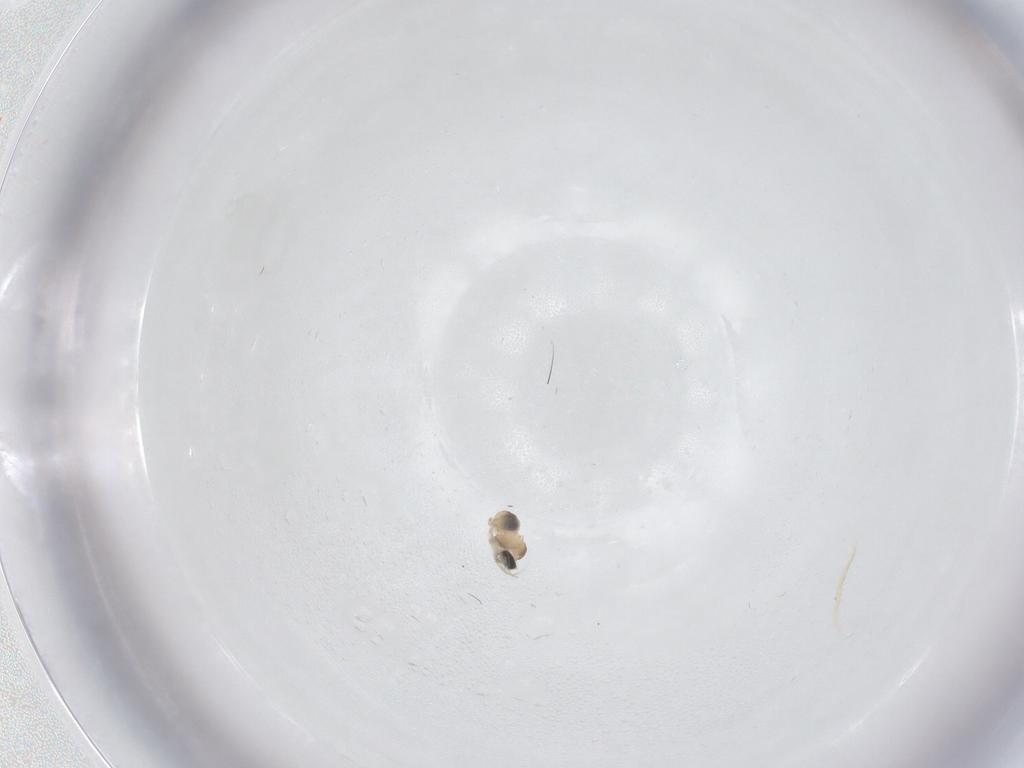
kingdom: Animalia
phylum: Arthropoda
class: Insecta
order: Diptera
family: Cecidomyiidae
